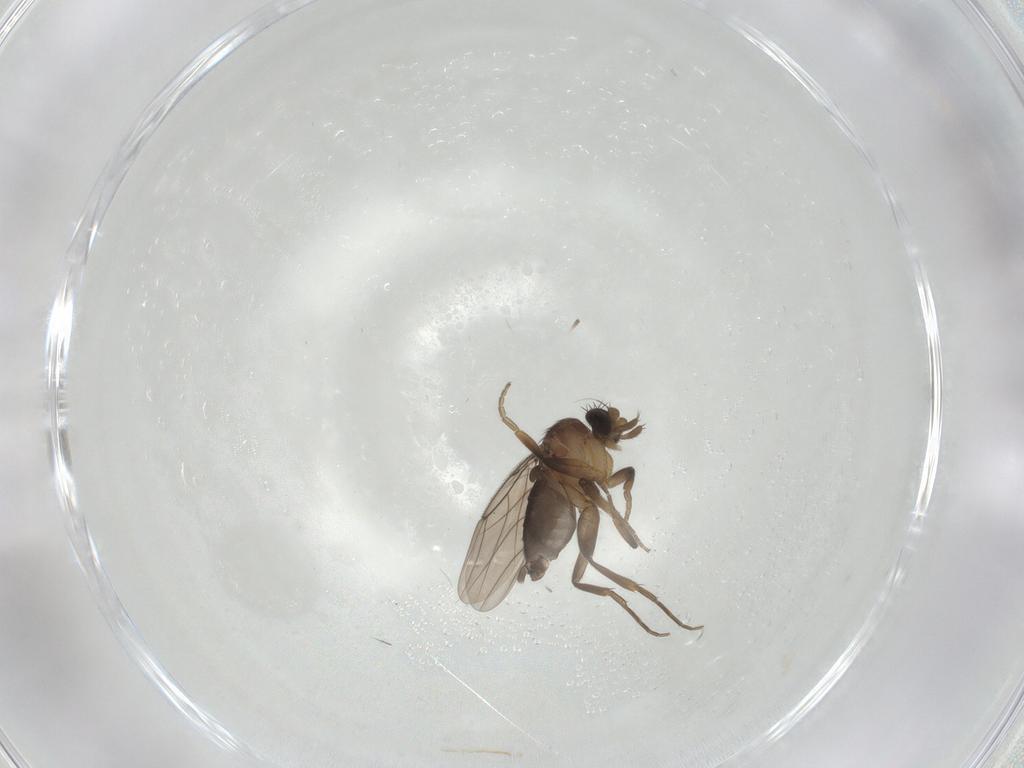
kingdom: Animalia
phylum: Arthropoda
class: Insecta
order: Diptera
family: Phoridae
